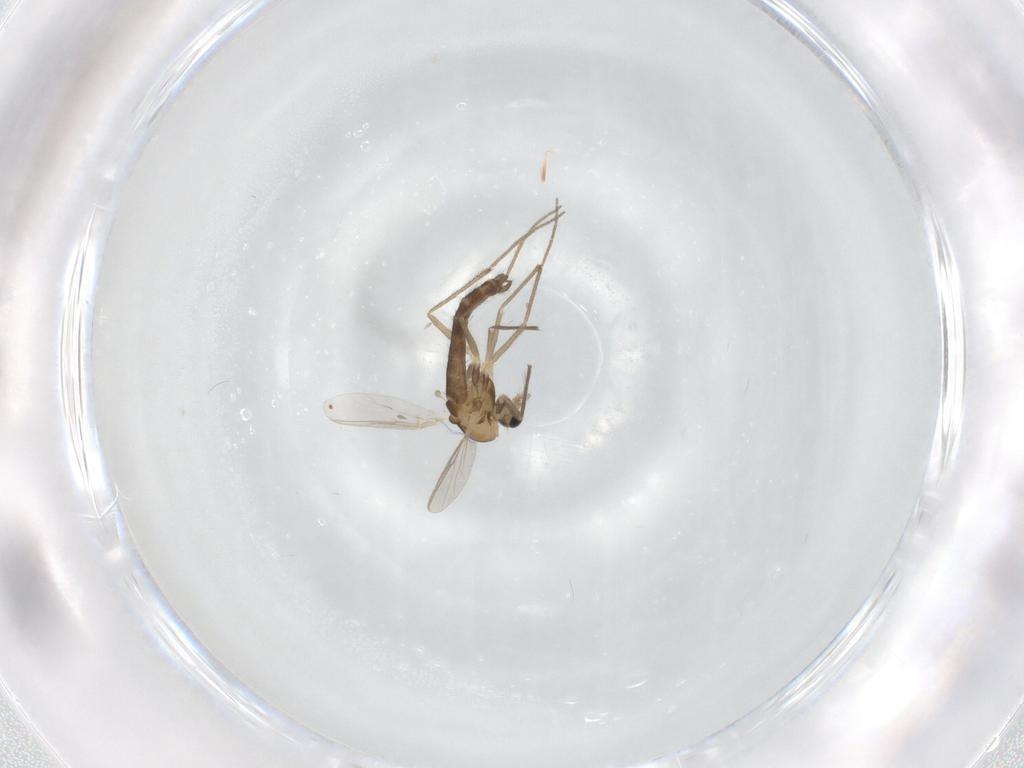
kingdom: Animalia
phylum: Arthropoda
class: Insecta
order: Diptera
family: Chironomidae
